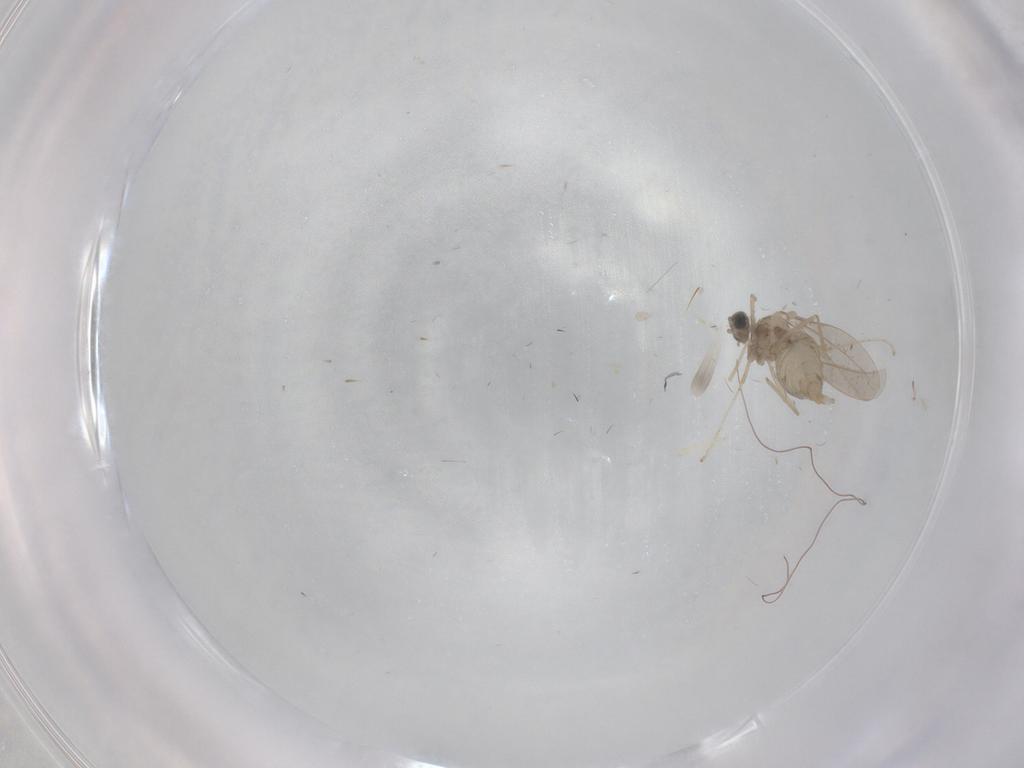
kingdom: Animalia
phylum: Arthropoda
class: Insecta
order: Diptera
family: Cecidomyiidae
